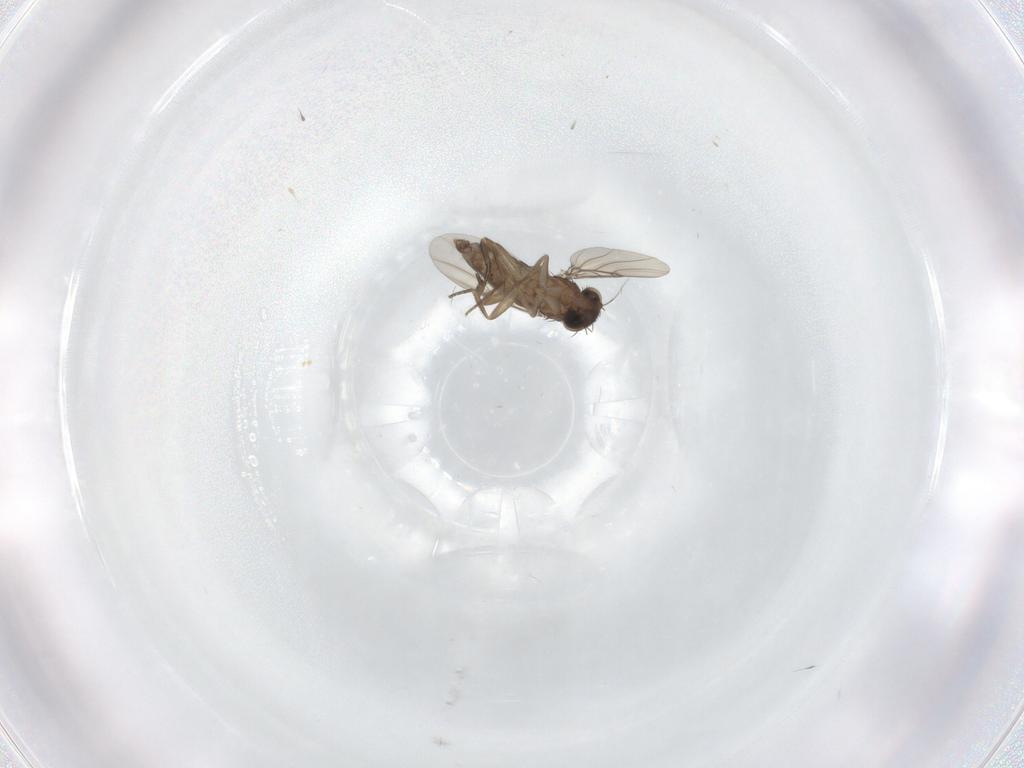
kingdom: Animalia
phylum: Arthropoda
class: Insecta
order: Diptera
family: Phoridae
